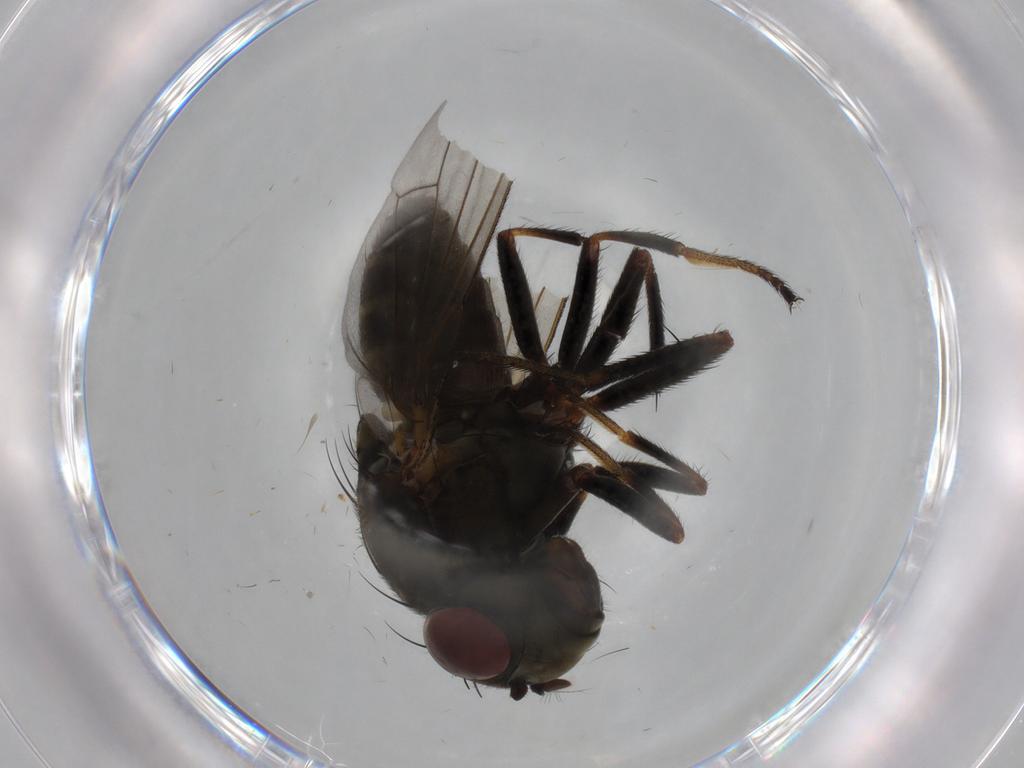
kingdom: Animalia
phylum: Arthropoda
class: Insecta
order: Diptera
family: Ephydridae
